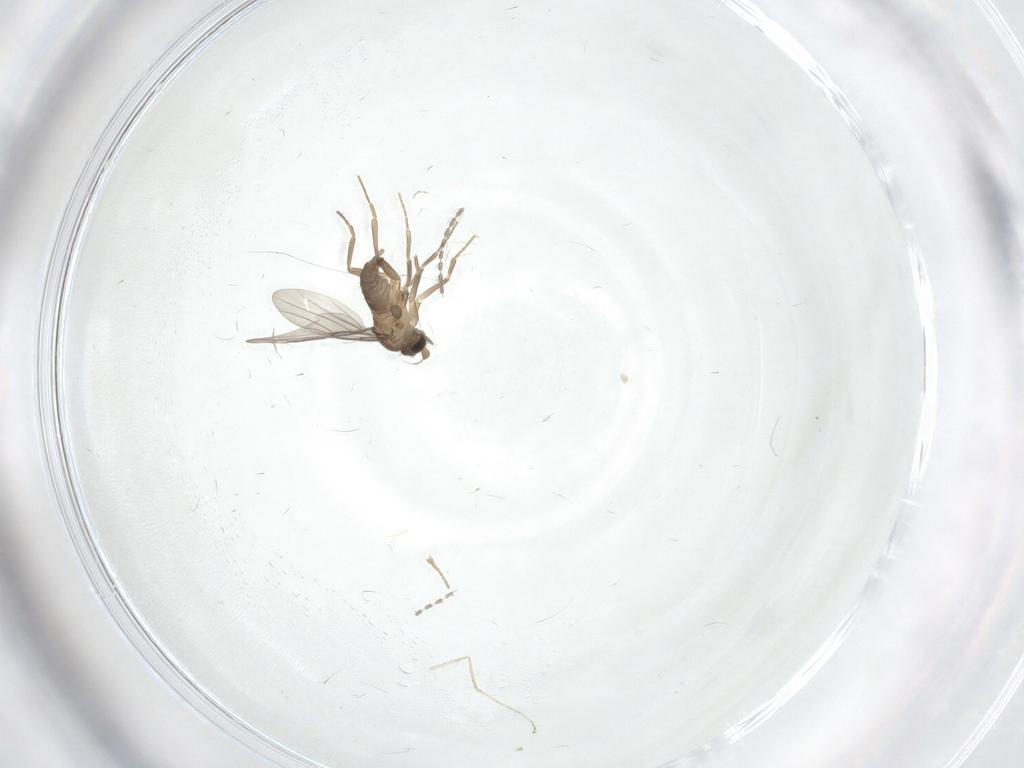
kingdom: Animalia
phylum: Arthropoda
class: Insecta
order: Diptera
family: Cecidomyiidae
